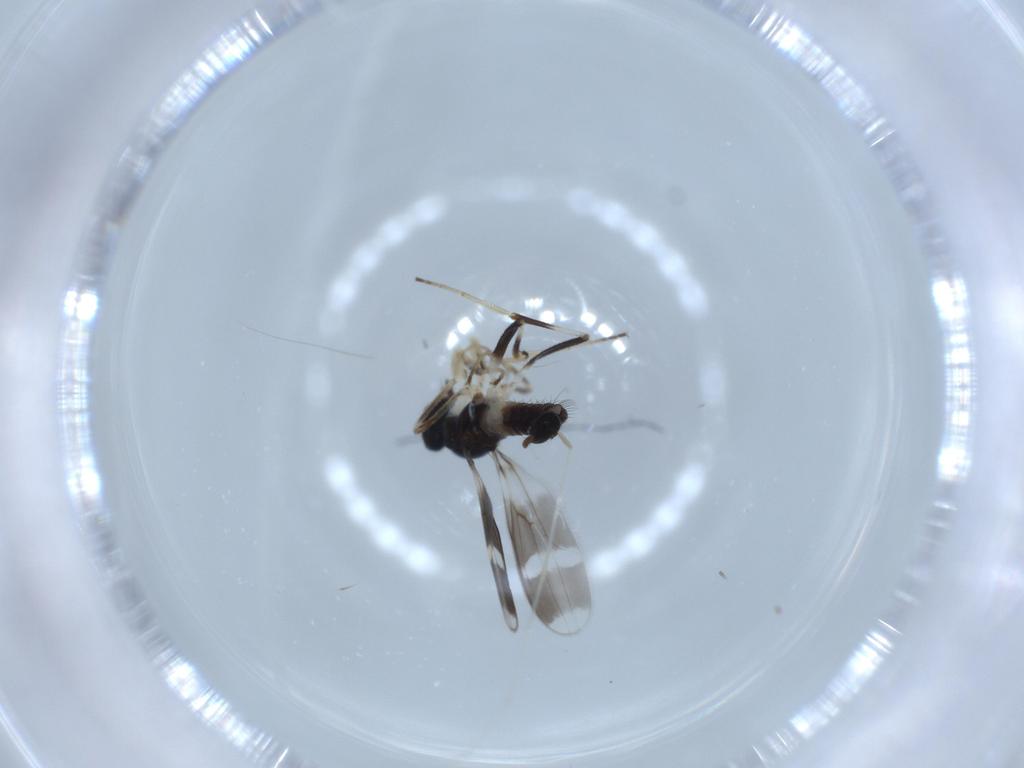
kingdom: Animalia
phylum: Arthropoda
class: Insecta
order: Diptera
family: Hybotidae
